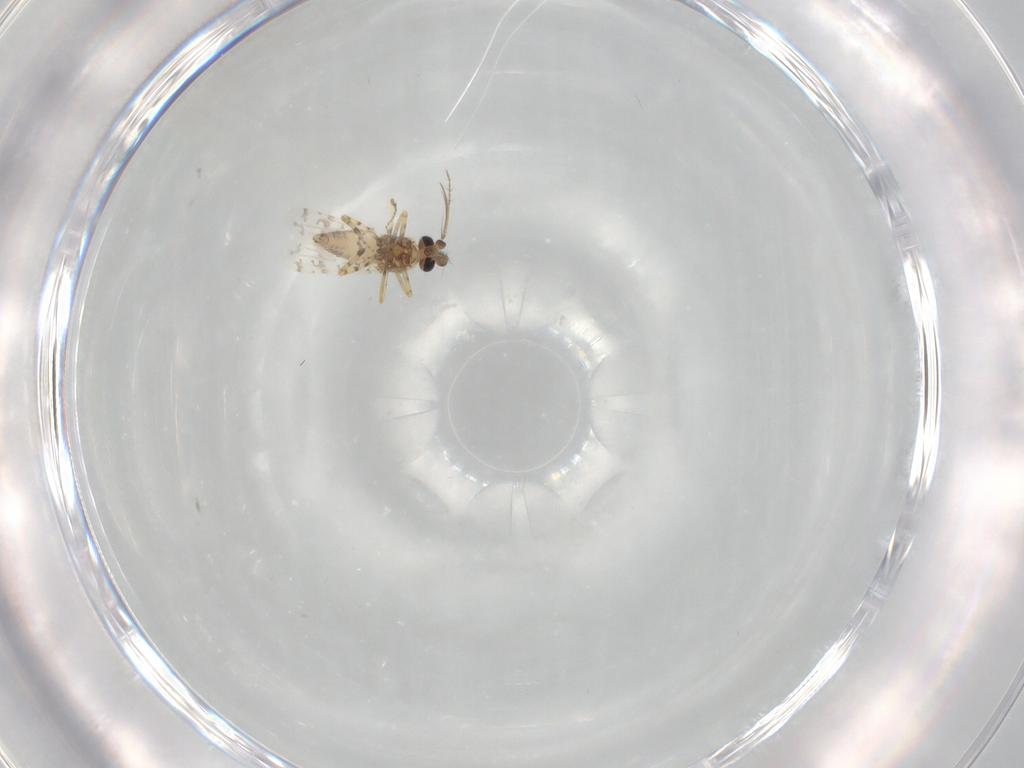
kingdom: Animalia
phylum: Arthropoda
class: Insecta
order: Diptera
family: Ceratopogonidae
